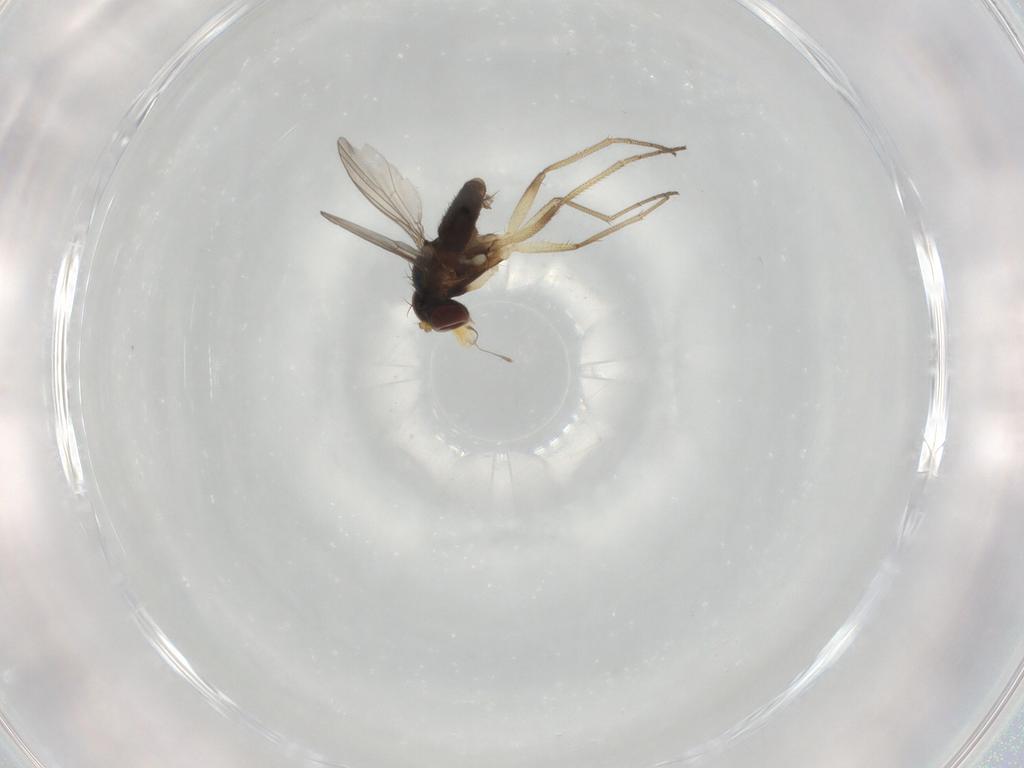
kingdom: Animalia
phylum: Arthropoda
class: Insecta
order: Diptera
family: Dolichopodidae
